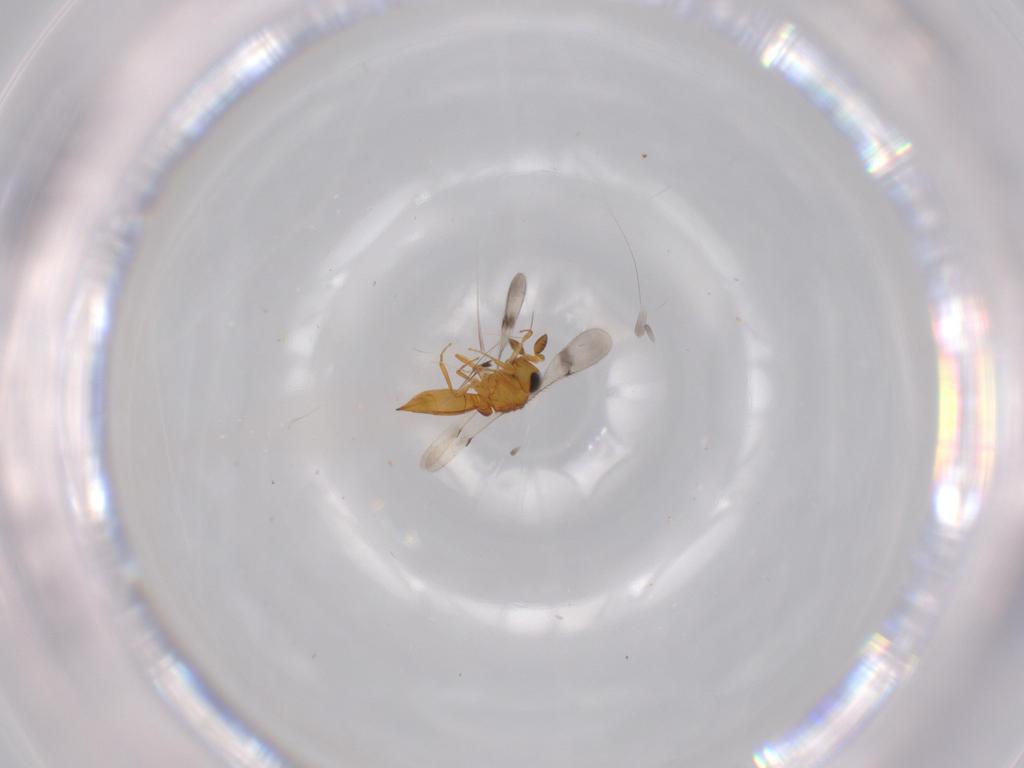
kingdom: Animalia
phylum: Arthropoda
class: Insecta
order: Hymenoptera
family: Scelionidae
